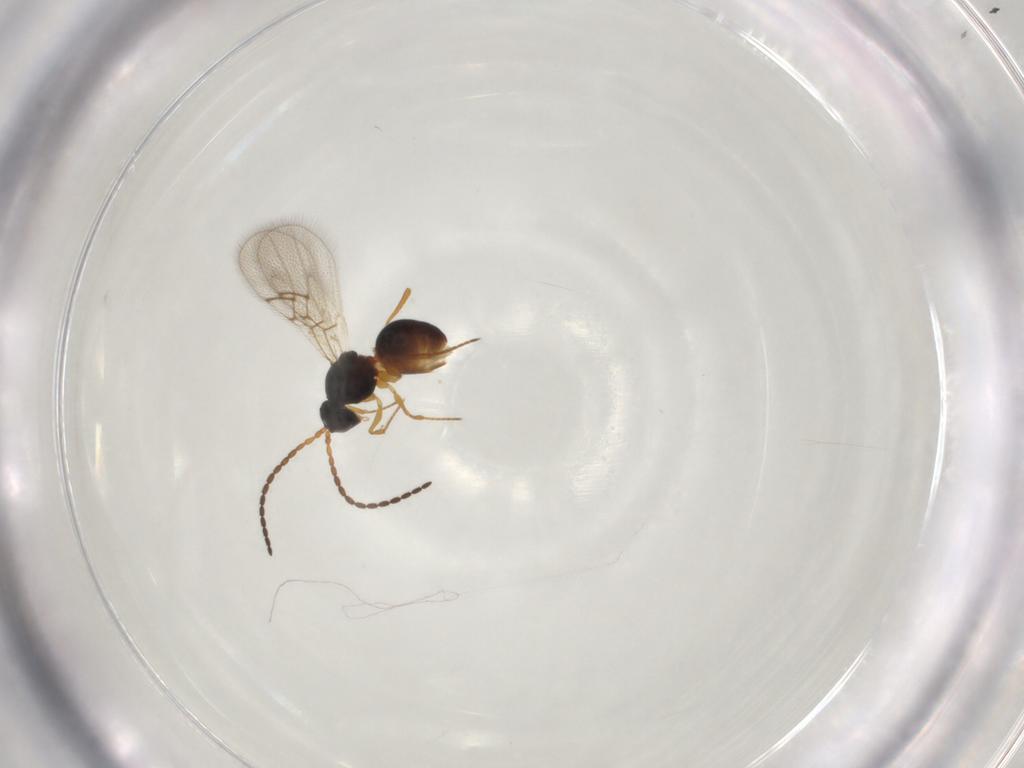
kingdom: Animalia
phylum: Arthropoda
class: Insecta
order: Hymenoptera
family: Figitidae
